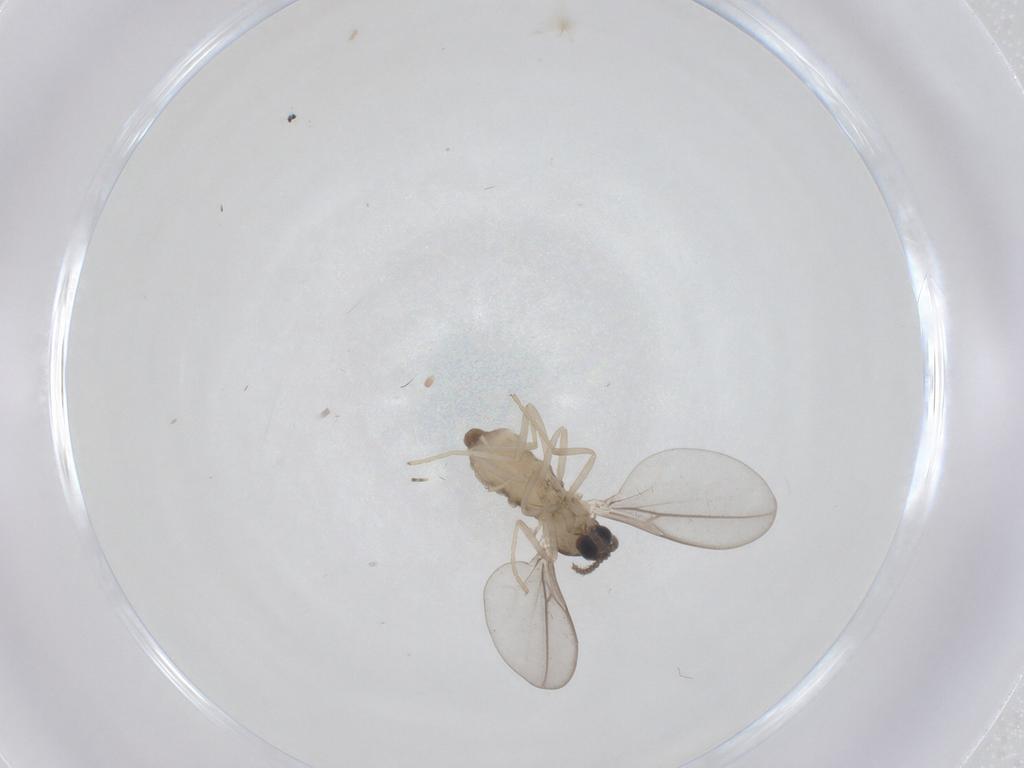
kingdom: Animalia
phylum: Arthropoda
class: Insecta
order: Diptera
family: Cecidomyiidae
